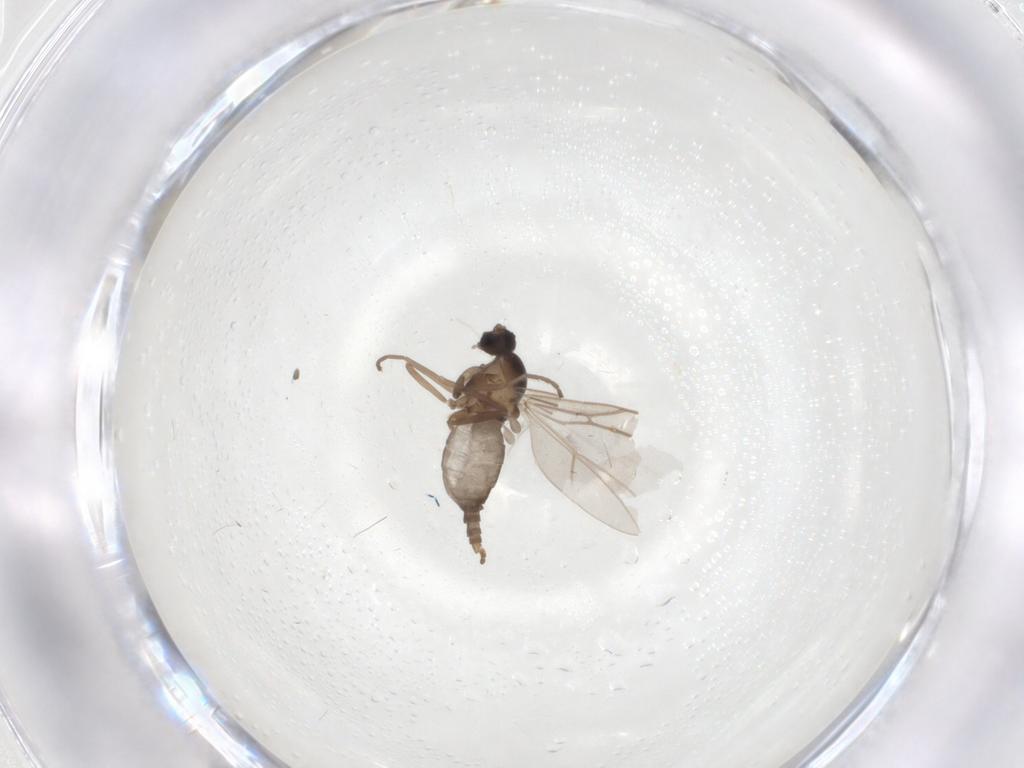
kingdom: Animalia
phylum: Arthropoda
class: Insecta
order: Diptera
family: Cecidomyiidae
